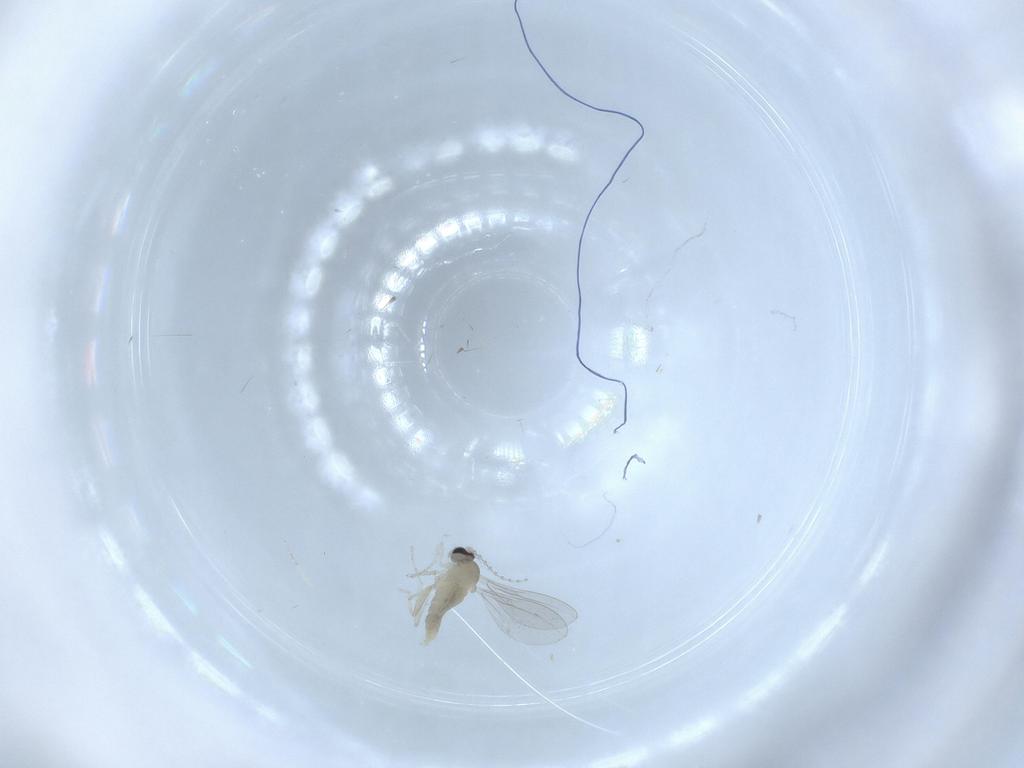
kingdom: Animalia
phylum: Arthropoda
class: Insecta
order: Diptera
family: Cecidomyiidae
